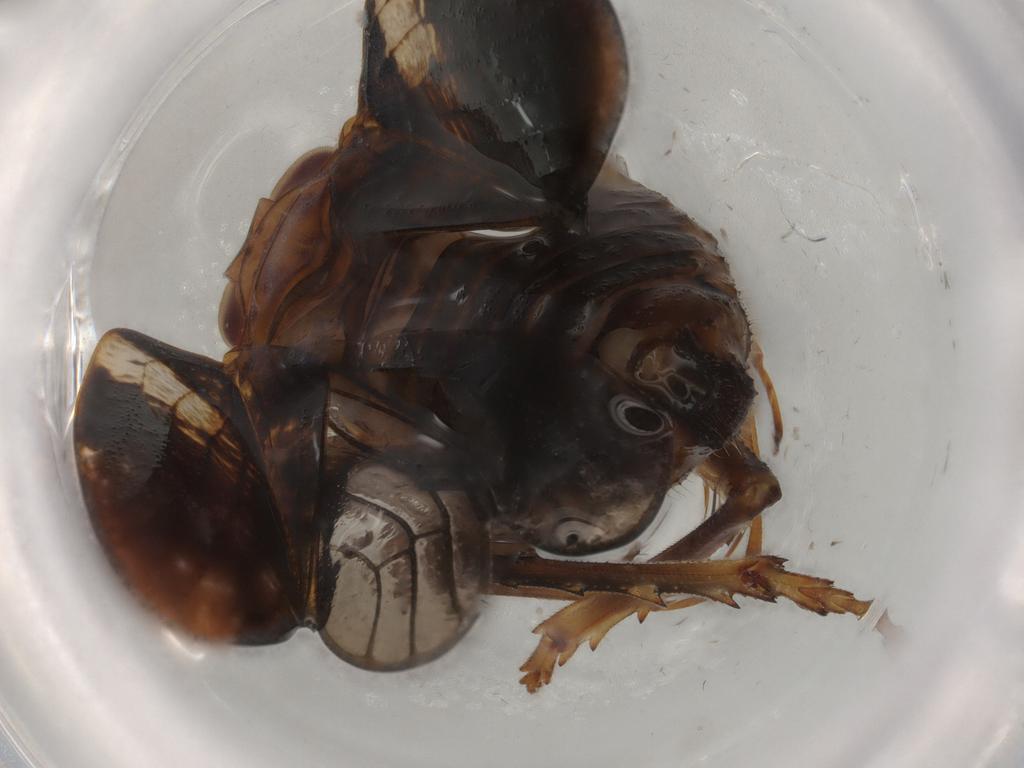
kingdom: Animalia
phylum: Arthropoda
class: Insecta
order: Hemiptera
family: Issidae
